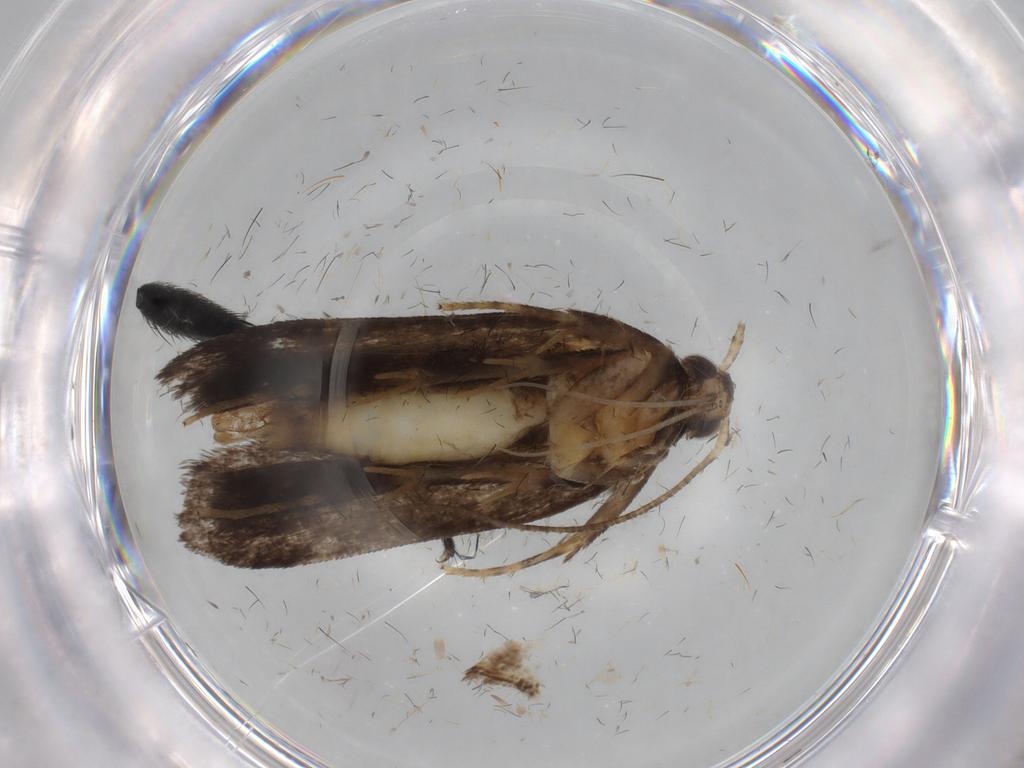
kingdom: Animalia
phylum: Arthropoda
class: Insecta
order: Lepidoptera
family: Gelechiidae
